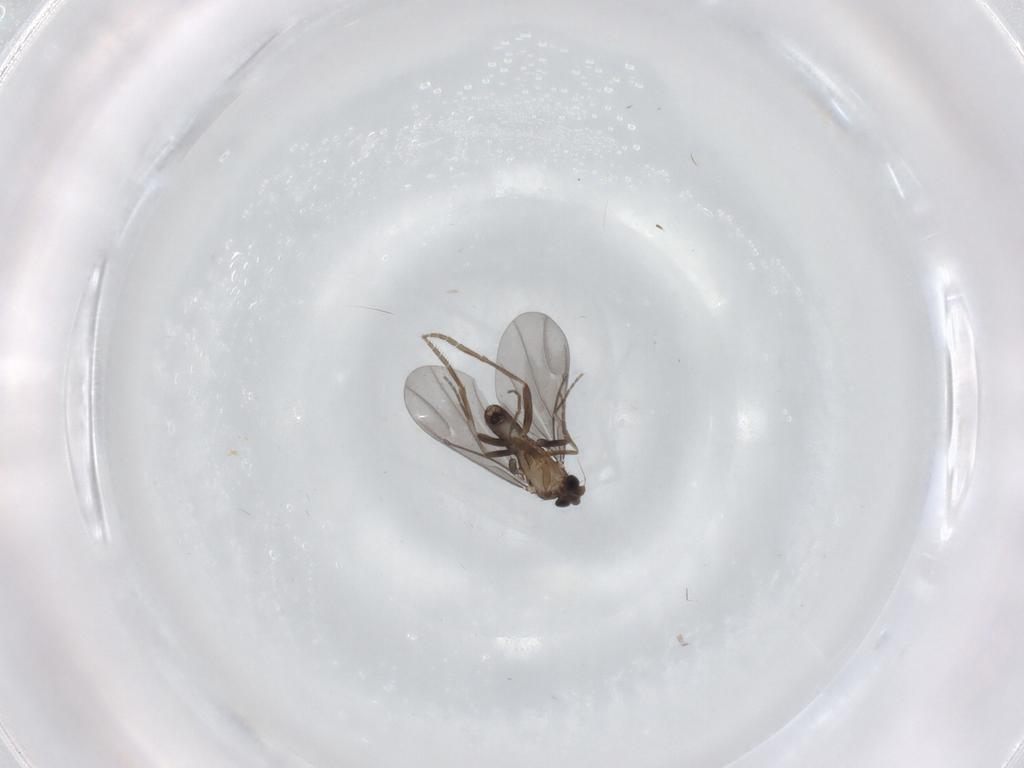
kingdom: Animalia
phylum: Arthropoda
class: Insecta
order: Diptera
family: Phoridae
